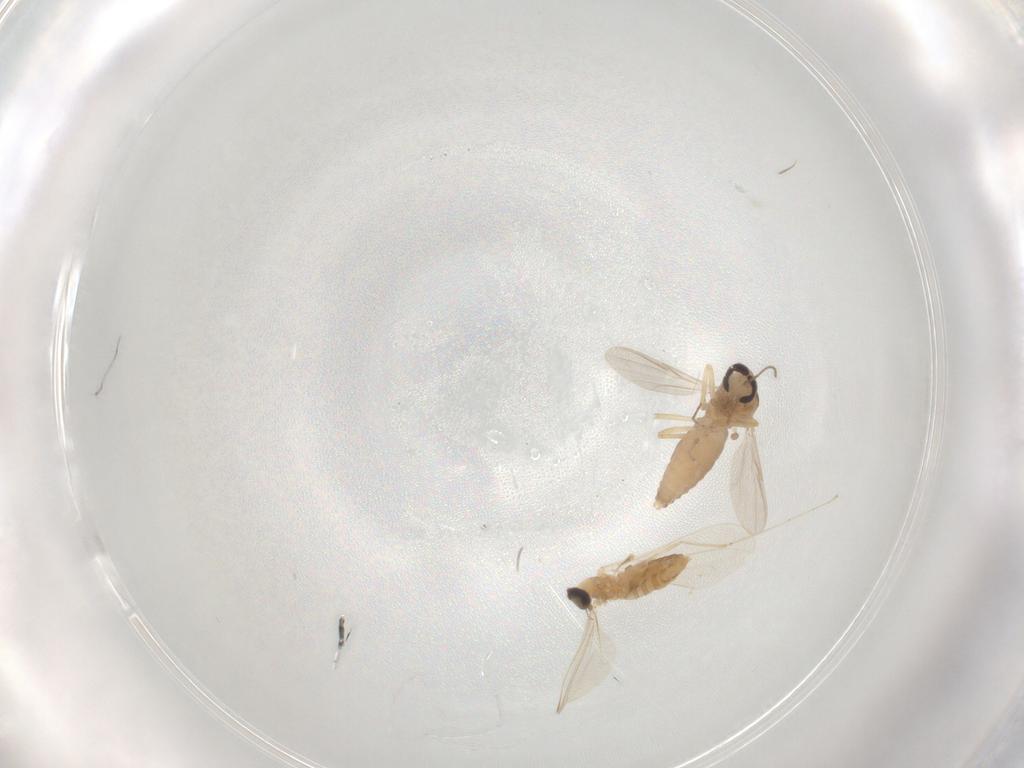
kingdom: Animalia
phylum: Arthropoda
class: Insecta
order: Diptera
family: Ceratopogonidae
